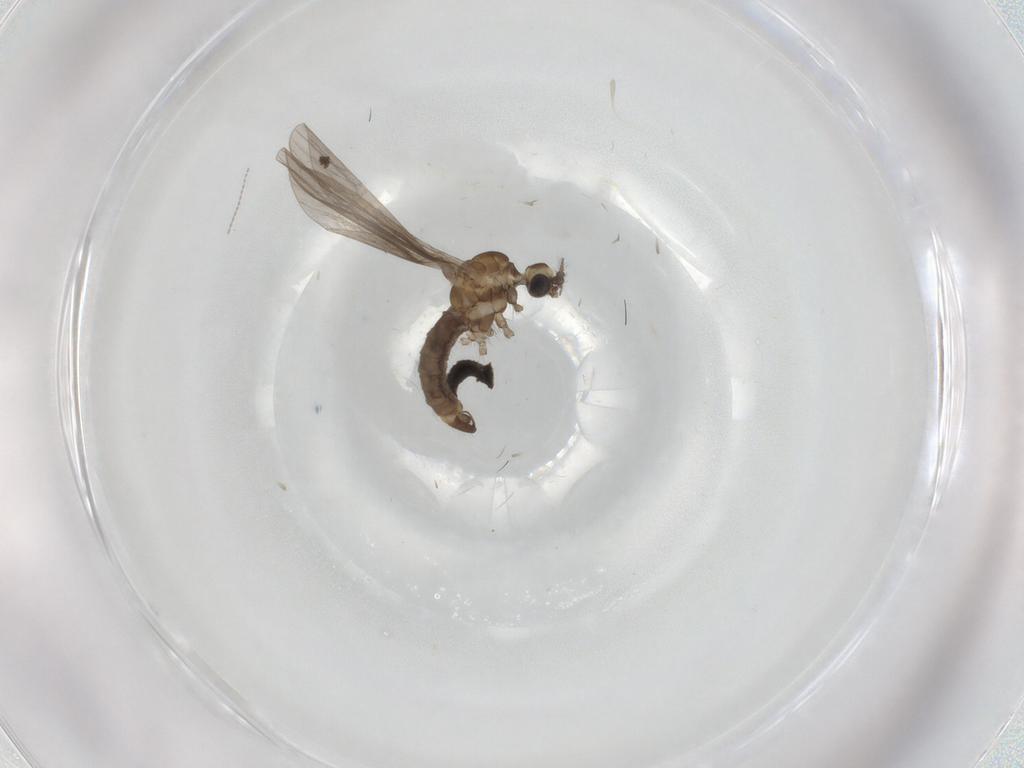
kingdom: Animalia
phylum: Arthropoda
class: Insecta
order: Diptera
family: Limoniidae
